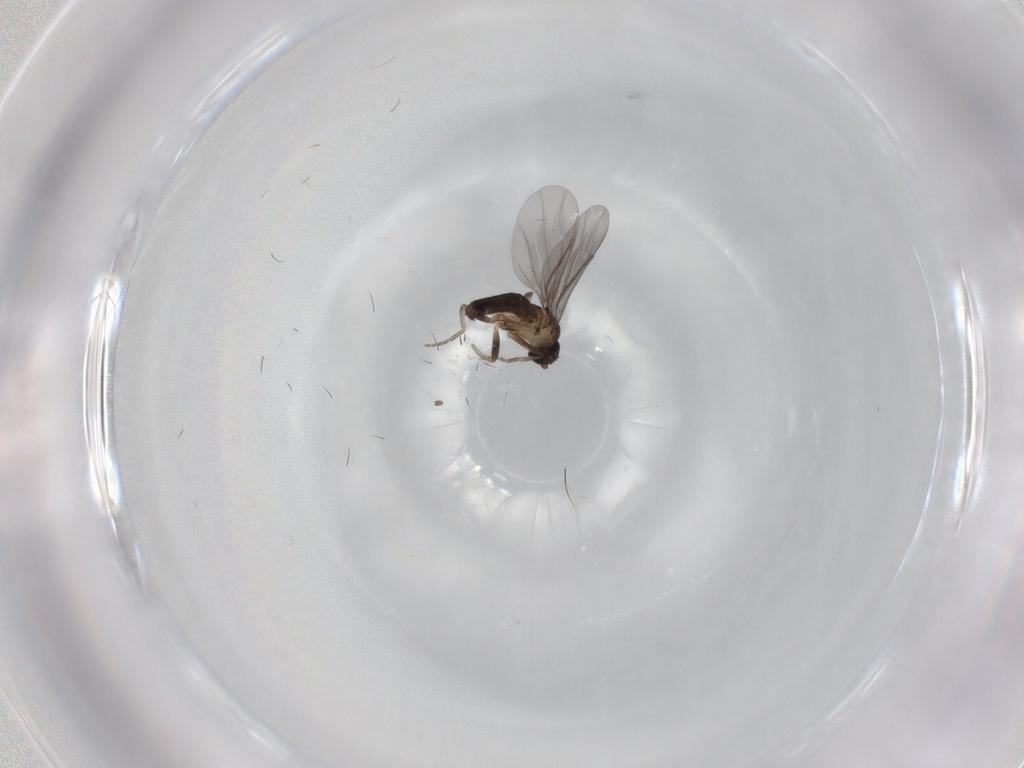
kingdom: Animalia
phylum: Arthropoda
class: Insecta
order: Diptera
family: Phoridae
